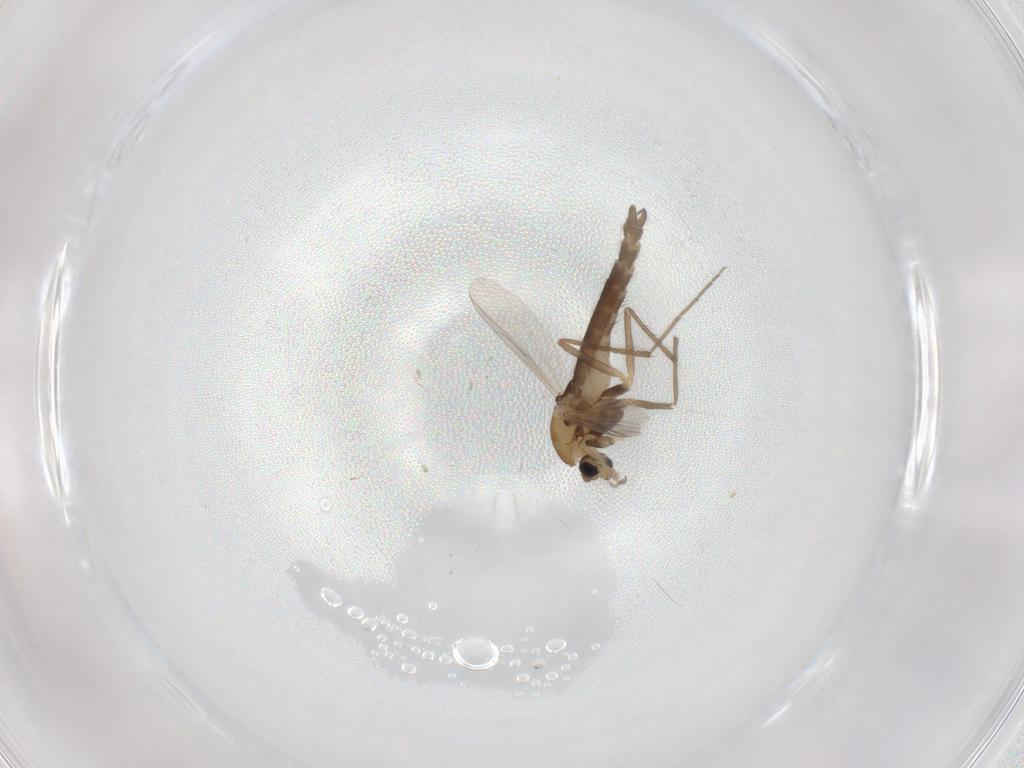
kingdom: Animalia
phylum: Arthropoda
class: Insecta
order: Diptera
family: Chironomidae
